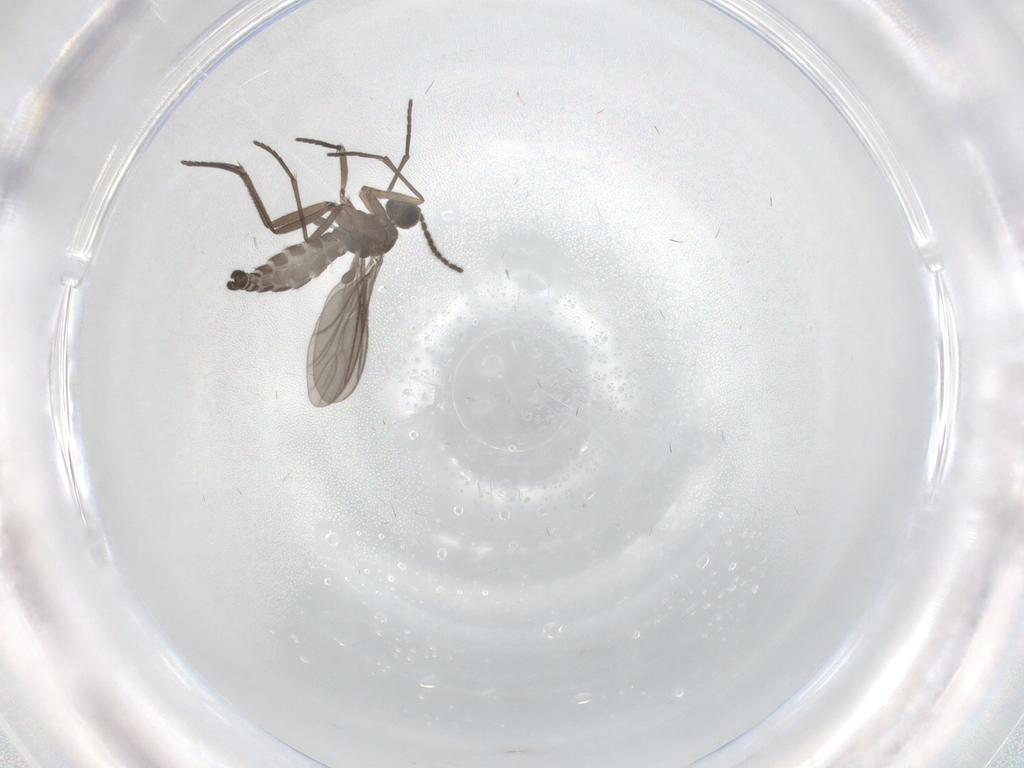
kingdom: Animalia
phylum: Arthropoda
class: Insecta
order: Diptera
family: Sciaridae
